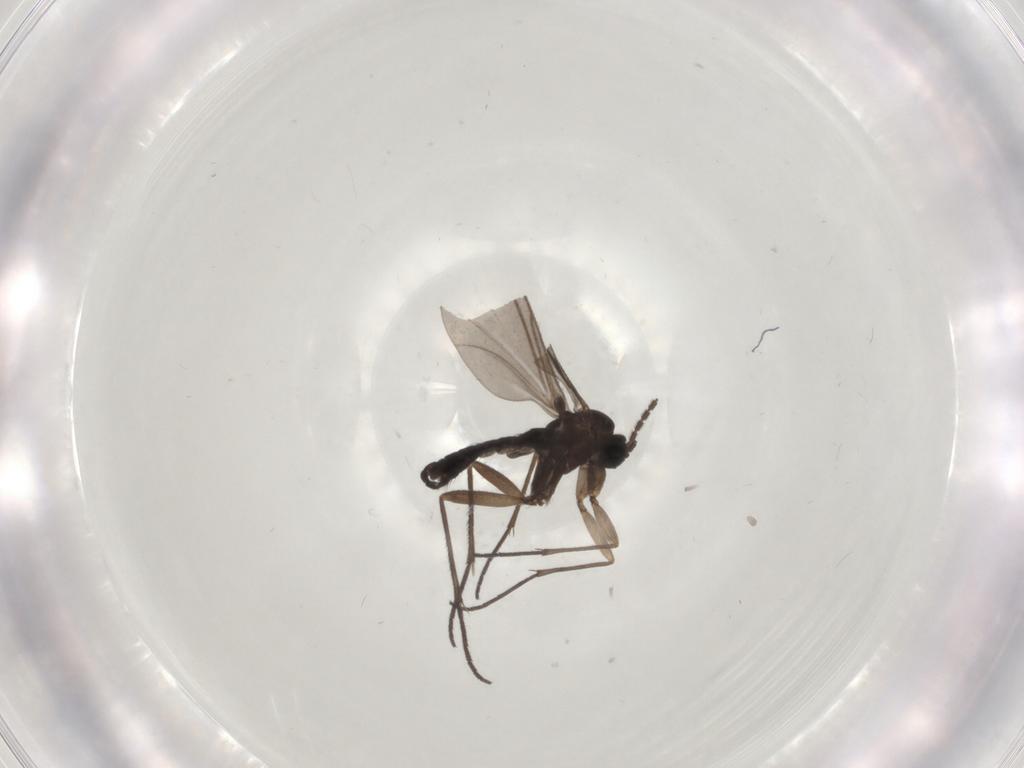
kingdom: Animalia
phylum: Arthropoda
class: Insecta
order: Diptera
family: Sciaridae
